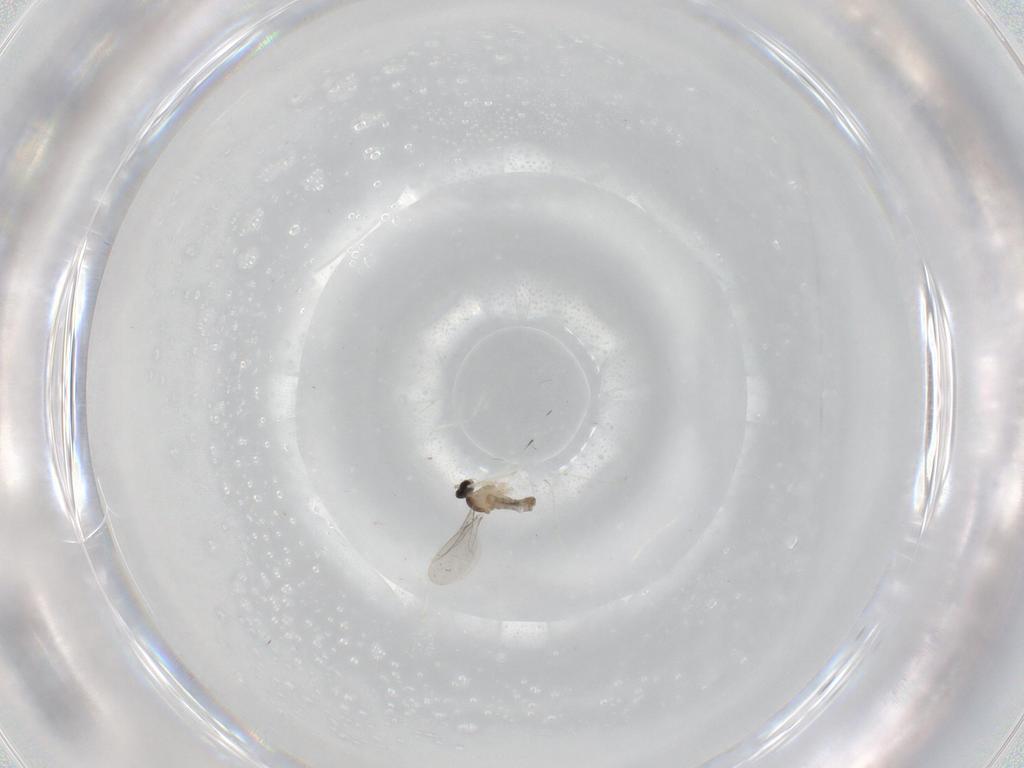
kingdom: Animalia
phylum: Arthropoda
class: Insecta
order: Diptera
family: Cecidomyiidae
